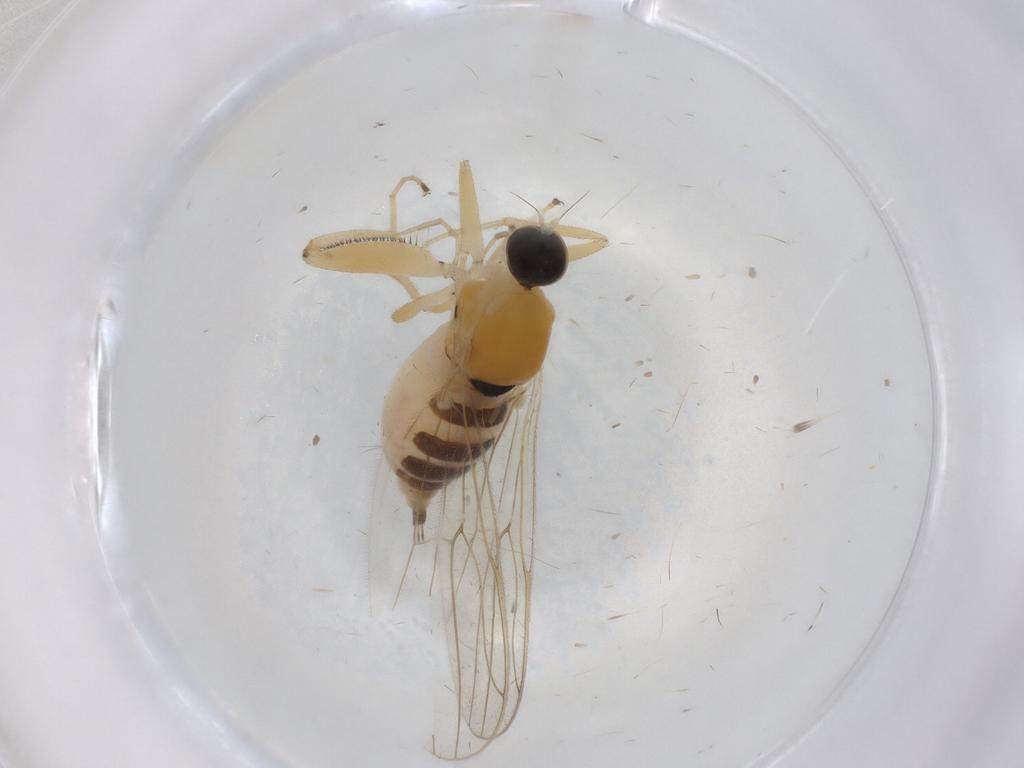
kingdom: Animalia
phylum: Arthropoda
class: Insecta
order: Diptera
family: Hybotidae
